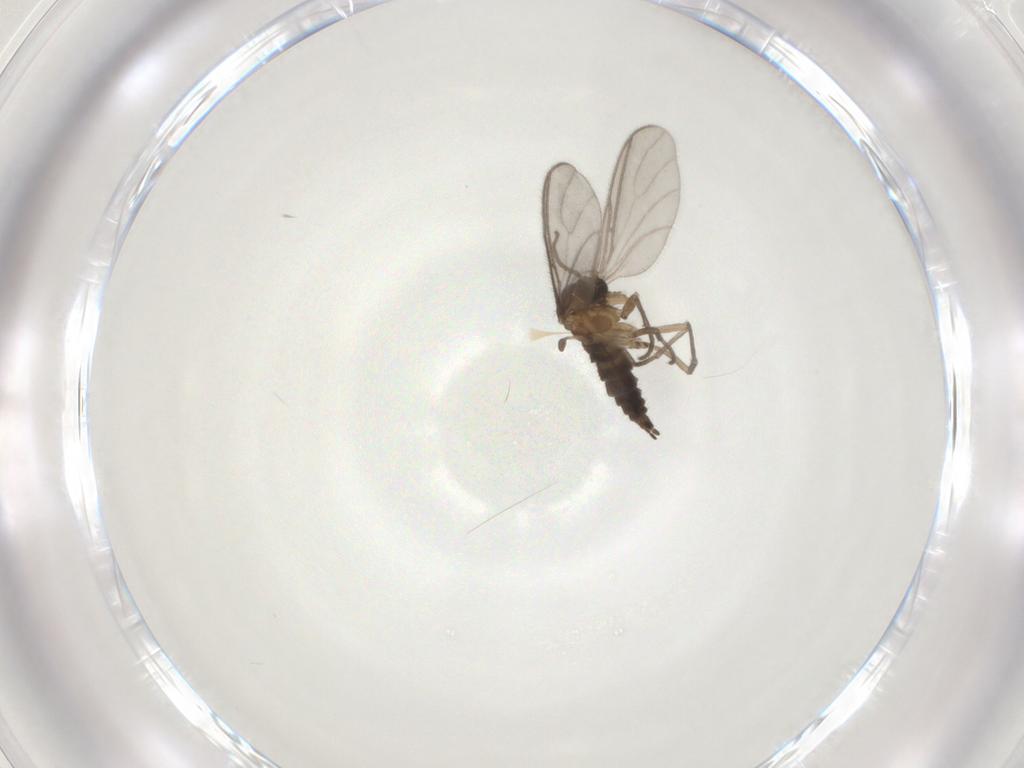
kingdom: Animalia
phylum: Arthropoda
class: Insecta
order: Diptera
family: Sciaridae
